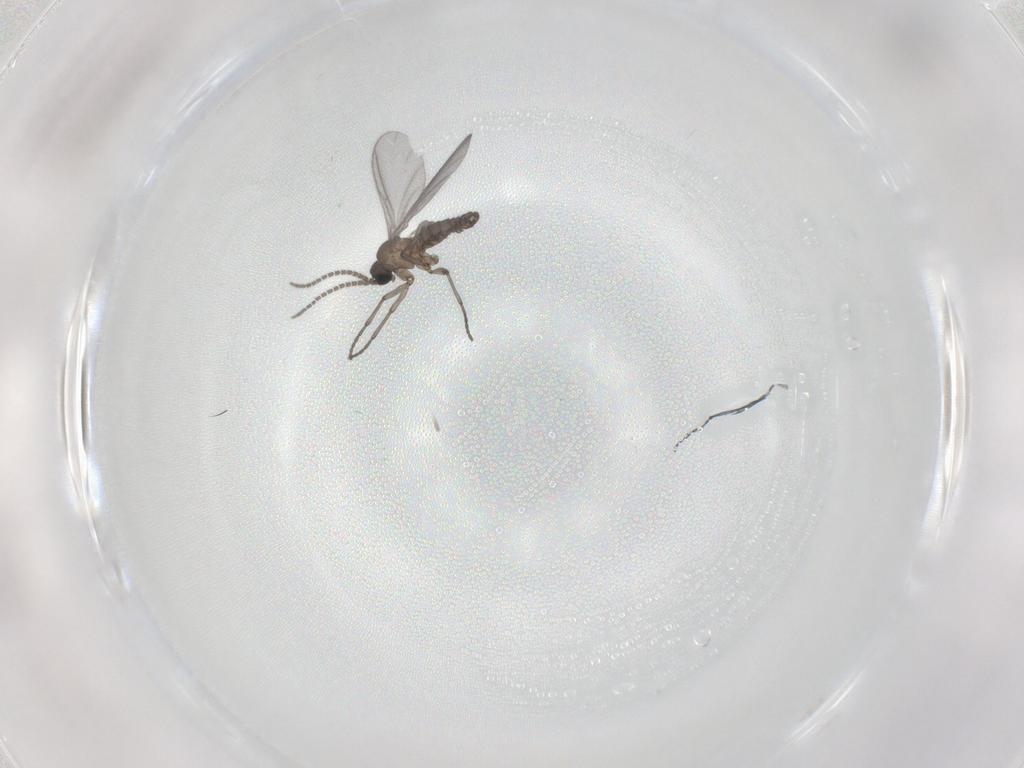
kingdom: Animalia
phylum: Arthropoda
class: Insecta
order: Diptera
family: Sciaridae
